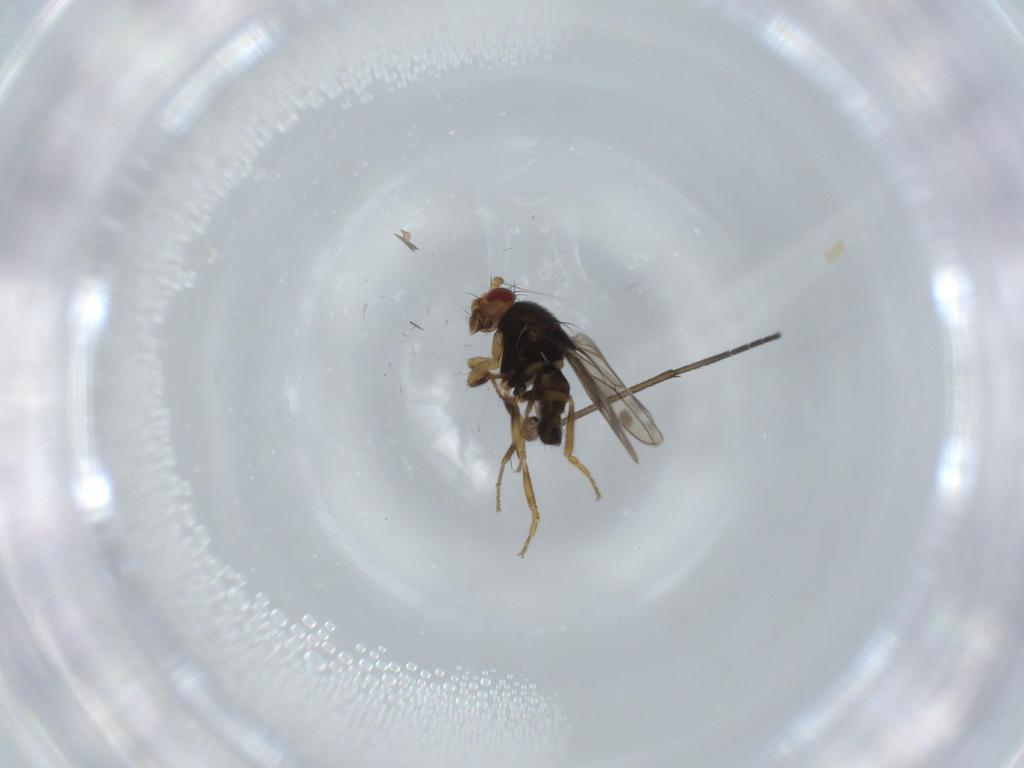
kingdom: Animalia
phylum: Arthropoda
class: Insecta
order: Diptera
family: Sphaeroceridae
